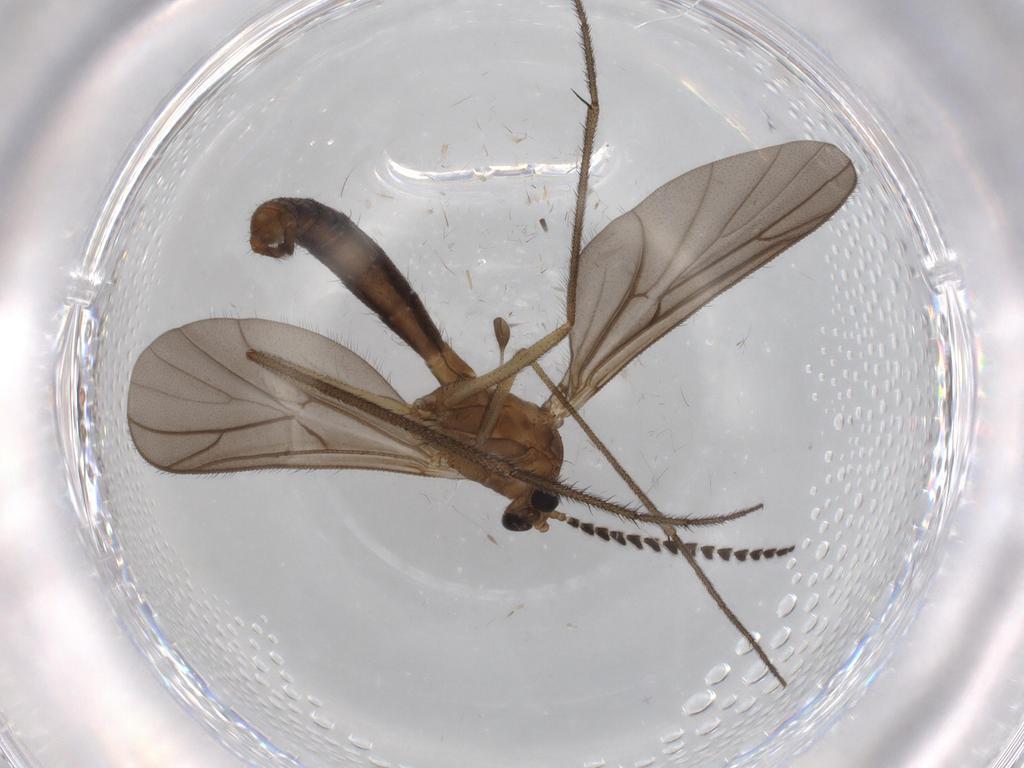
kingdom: Animalia
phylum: Arthropoda
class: Insecta
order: Diptera
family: Ditomyiidae
